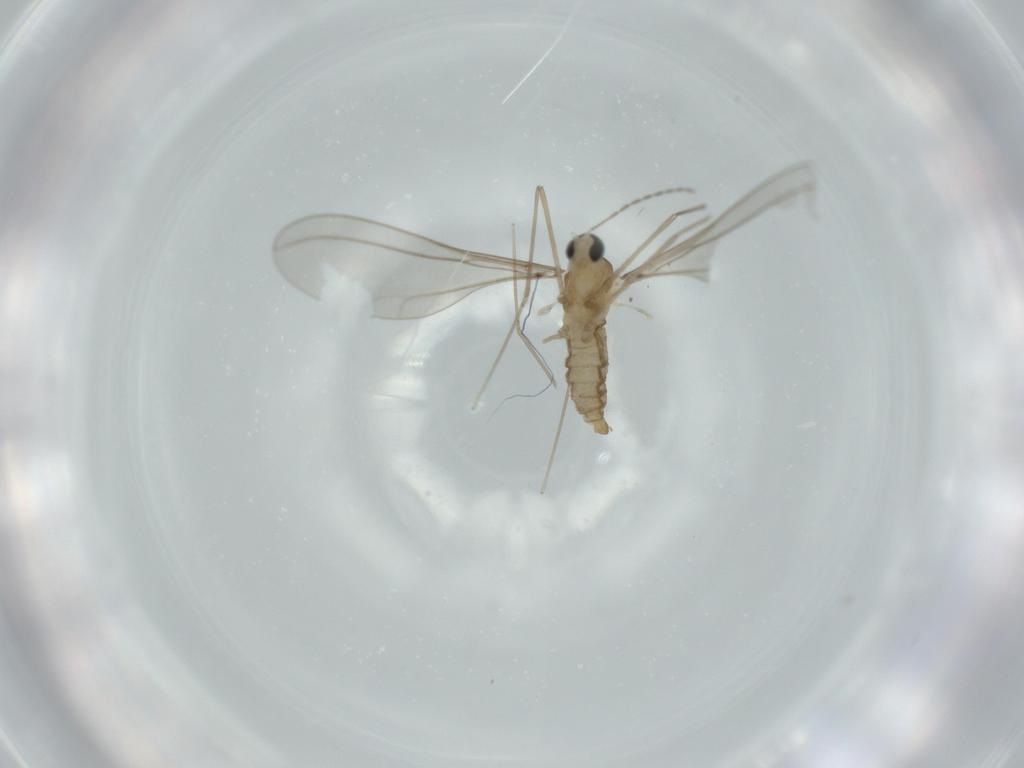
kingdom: Animalia
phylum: Arthropoda
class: Insecta
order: Diptera
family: Cecidomyiidae
